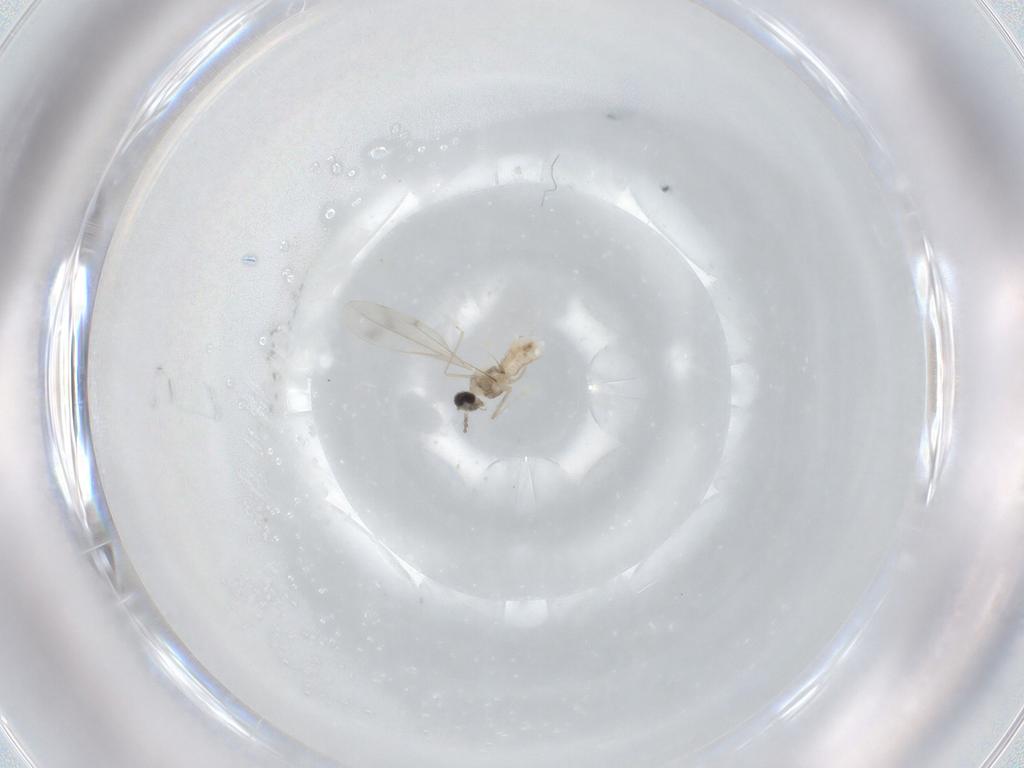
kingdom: Animalia
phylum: Arthropoda
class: Insecta
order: Diptera
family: Cecidomyiidae
